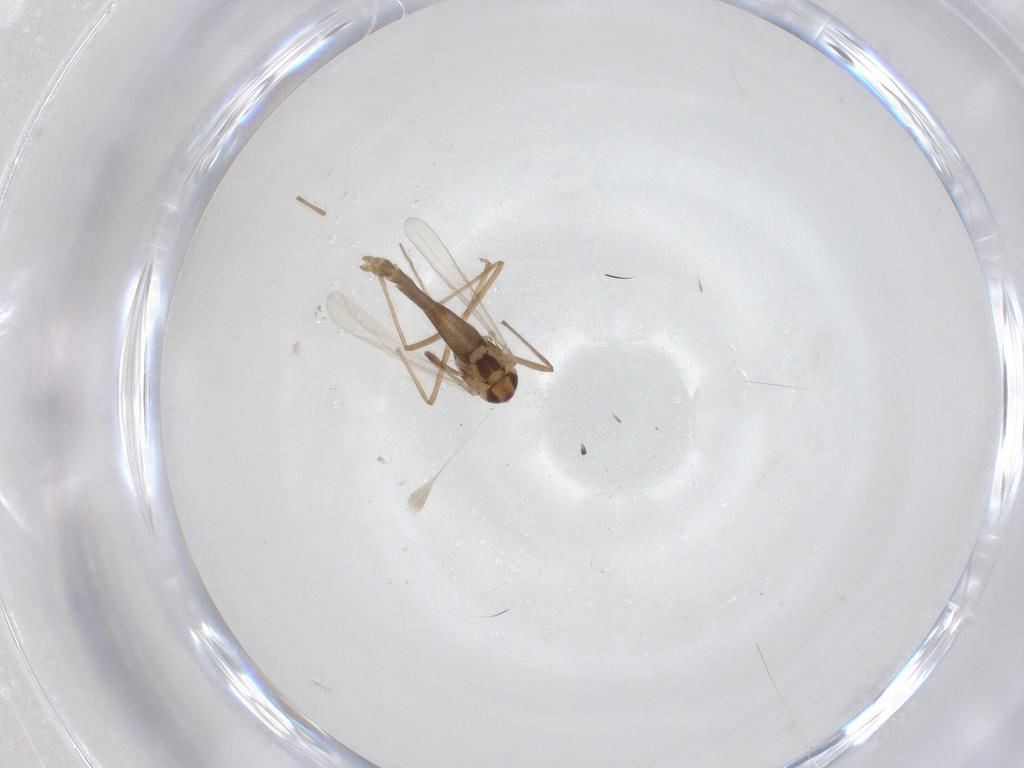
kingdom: Animalia
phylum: Arthropoda
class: Insecta
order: Diptera
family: Chironomidae
